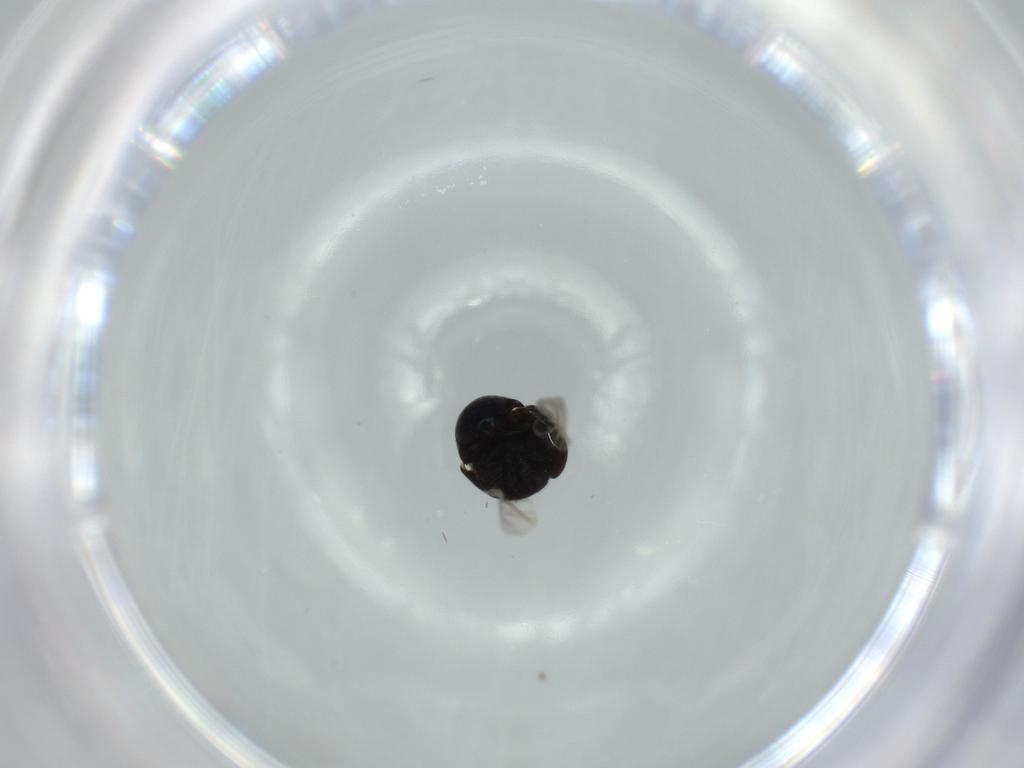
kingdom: Animalia
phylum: Arthropoda
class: Insecta
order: Coleoptera
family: Cybocephalidae
